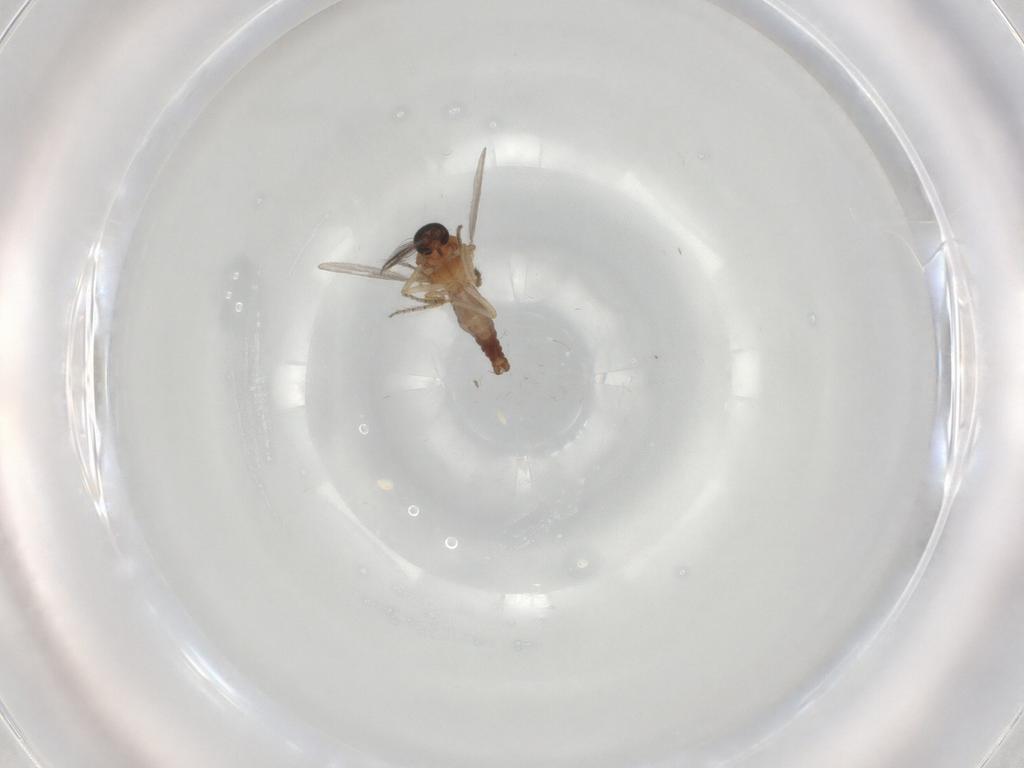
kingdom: Animalia
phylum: Arthropoda
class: Insecta
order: Diptera
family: Ceratopogonidae
